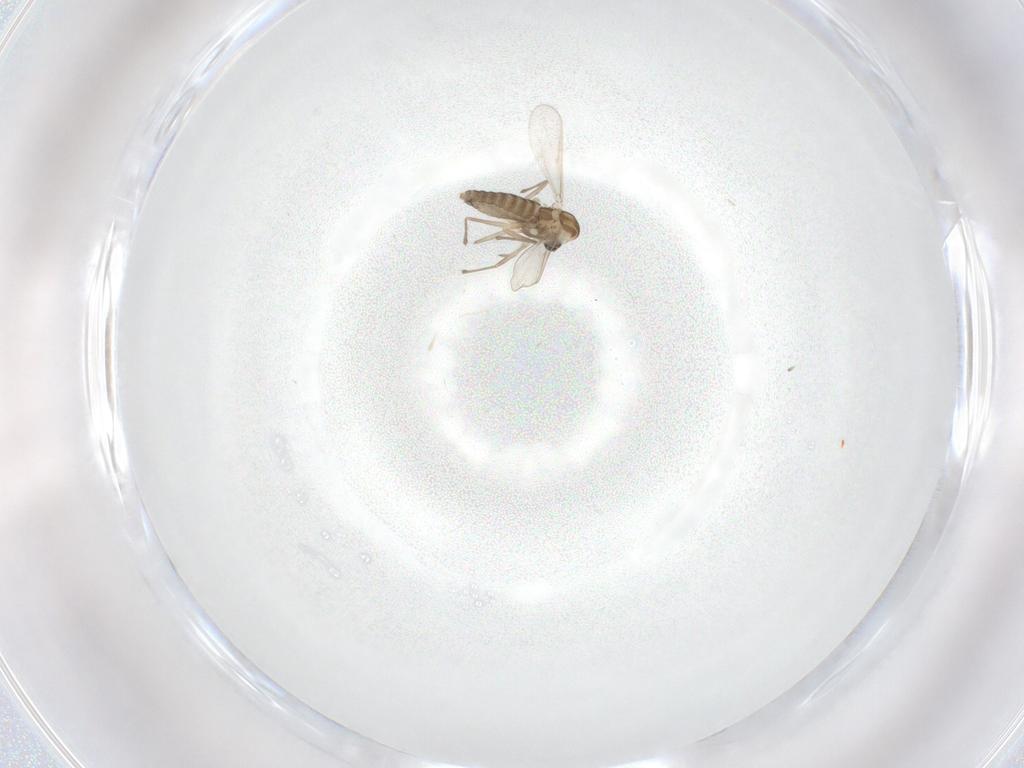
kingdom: Animalia
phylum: Arthropoda
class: Insecta
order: Diptera
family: Chironomidae
